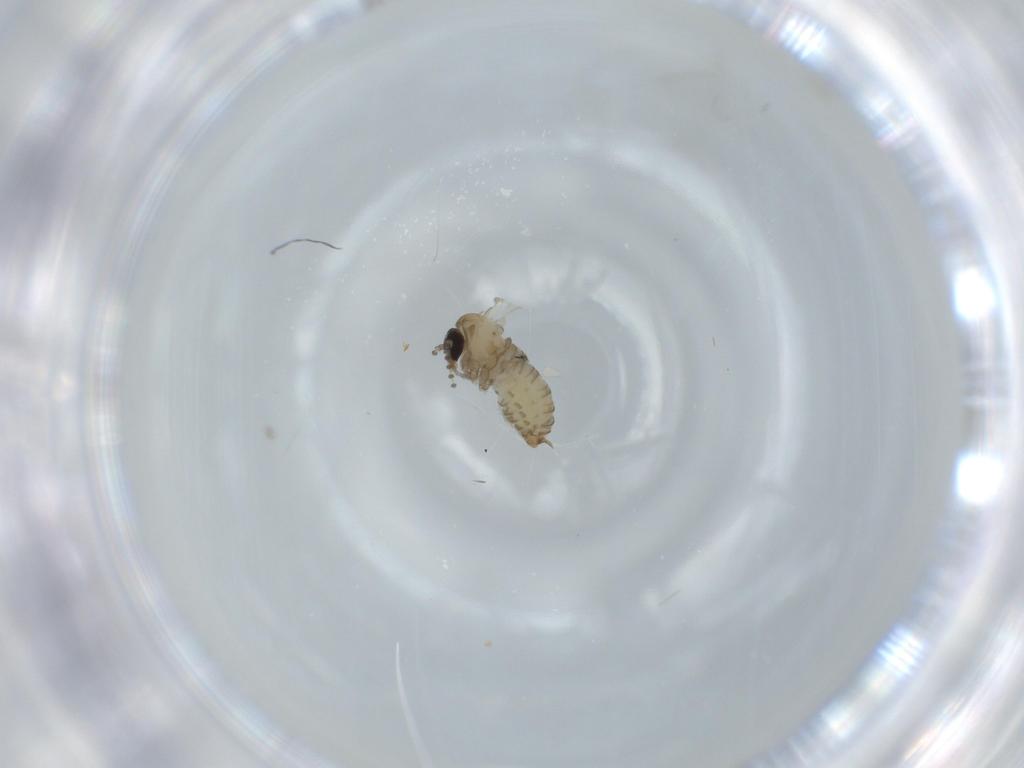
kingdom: Animalia
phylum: Arthropoda
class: Insecta
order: Diptera
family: Psychodidae
